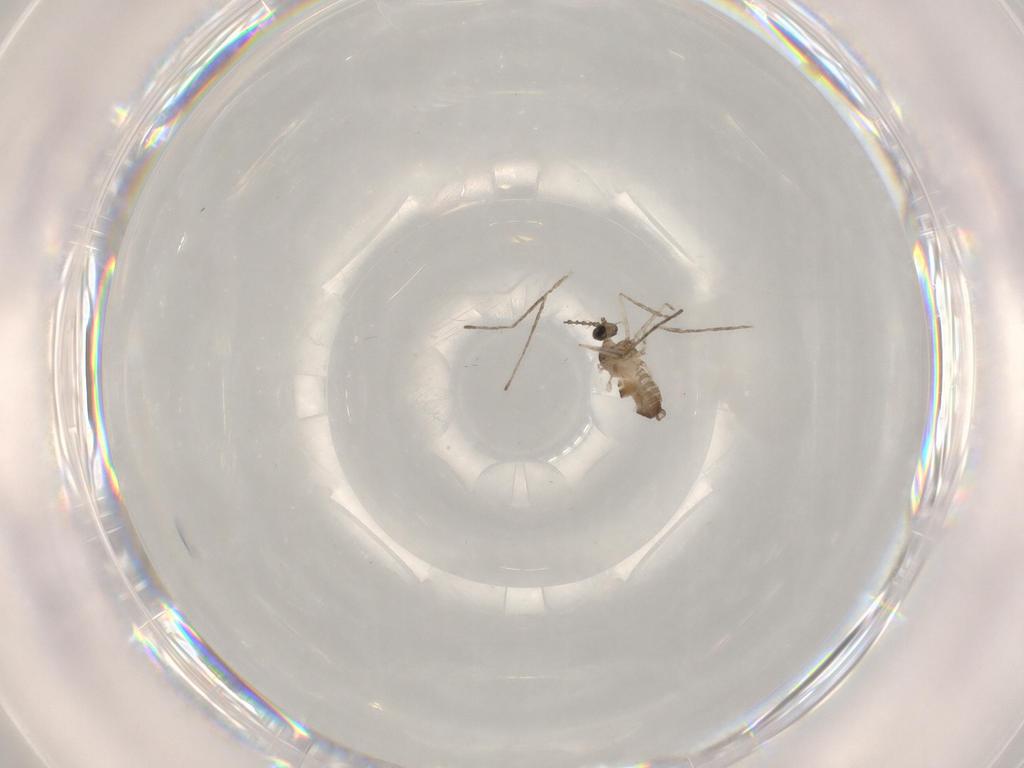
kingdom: Animalia
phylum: Arthropoda
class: Insecta
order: Diptera
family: Cecidomyiidae
